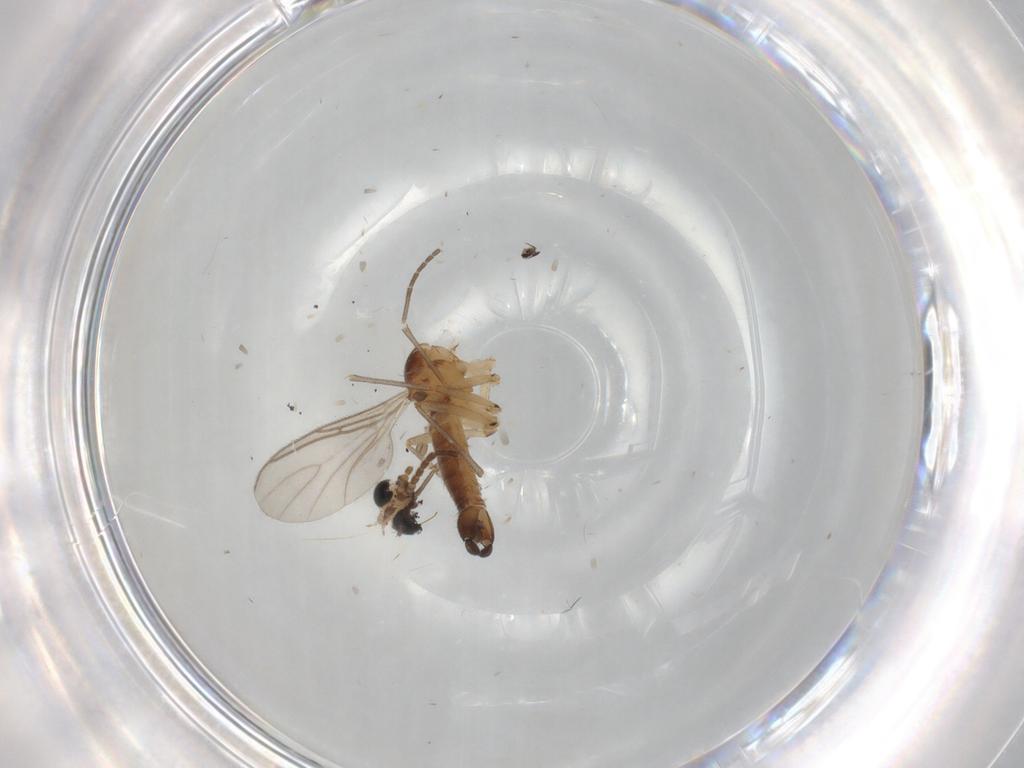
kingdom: Animalia
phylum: Arthropoda
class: Insecta
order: Diptera
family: Sciaridae
